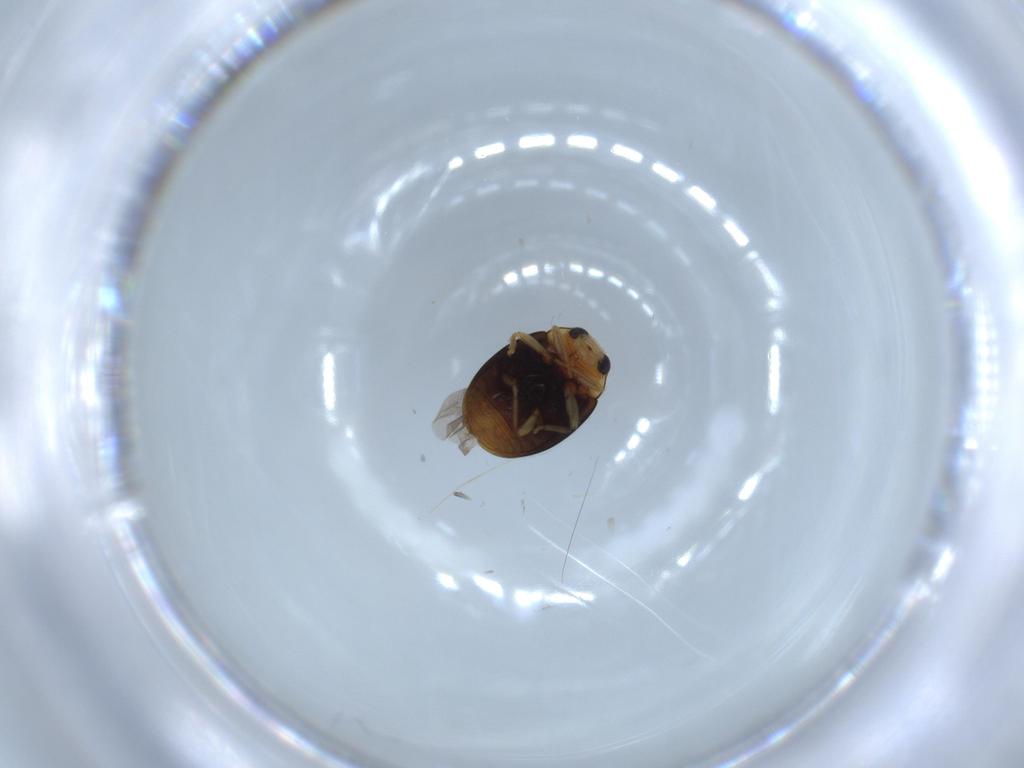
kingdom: Animalia
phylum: Arthropoda
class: Insecta
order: Coleoptera
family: Coccinellidae
